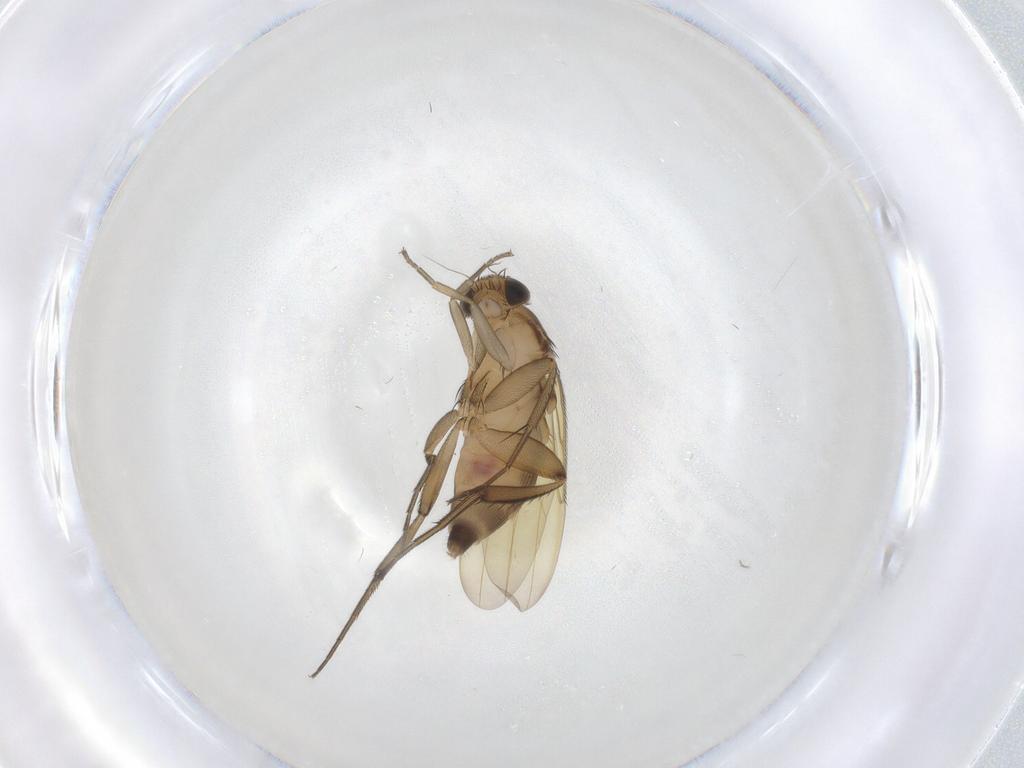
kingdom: Animalia
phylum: Arthropoda
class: Insecta
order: Diptera
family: Phoridae
